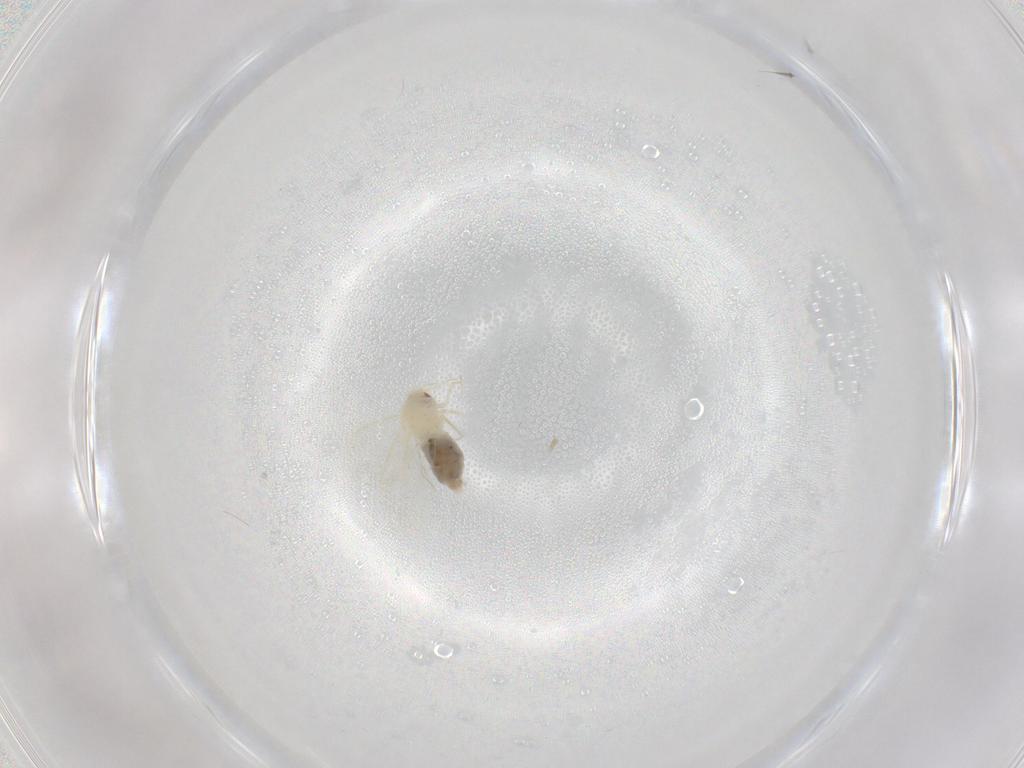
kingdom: Animalia
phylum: Arthropoda
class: Insecta
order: Hemiptera
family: Aleyrodidae
